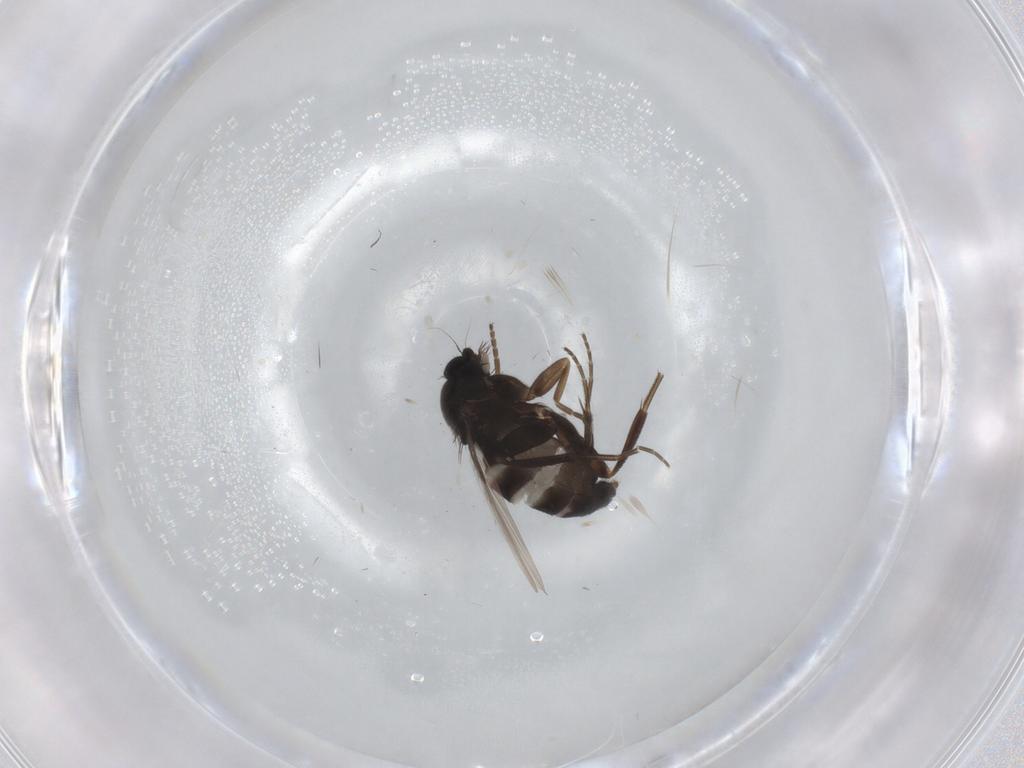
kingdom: Animalia
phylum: Arthropoda
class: Insecta
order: Diptera
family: Phoridae
